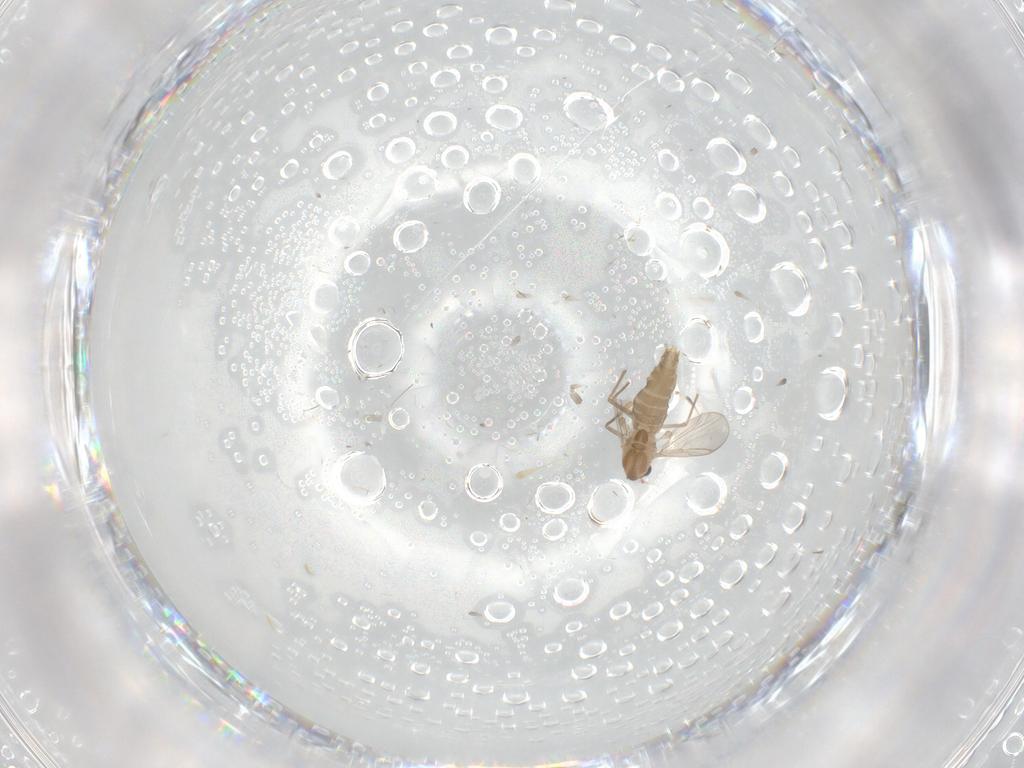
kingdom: Animalia
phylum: Arthropoda
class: Insecta
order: Diptera
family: Chironomidae
